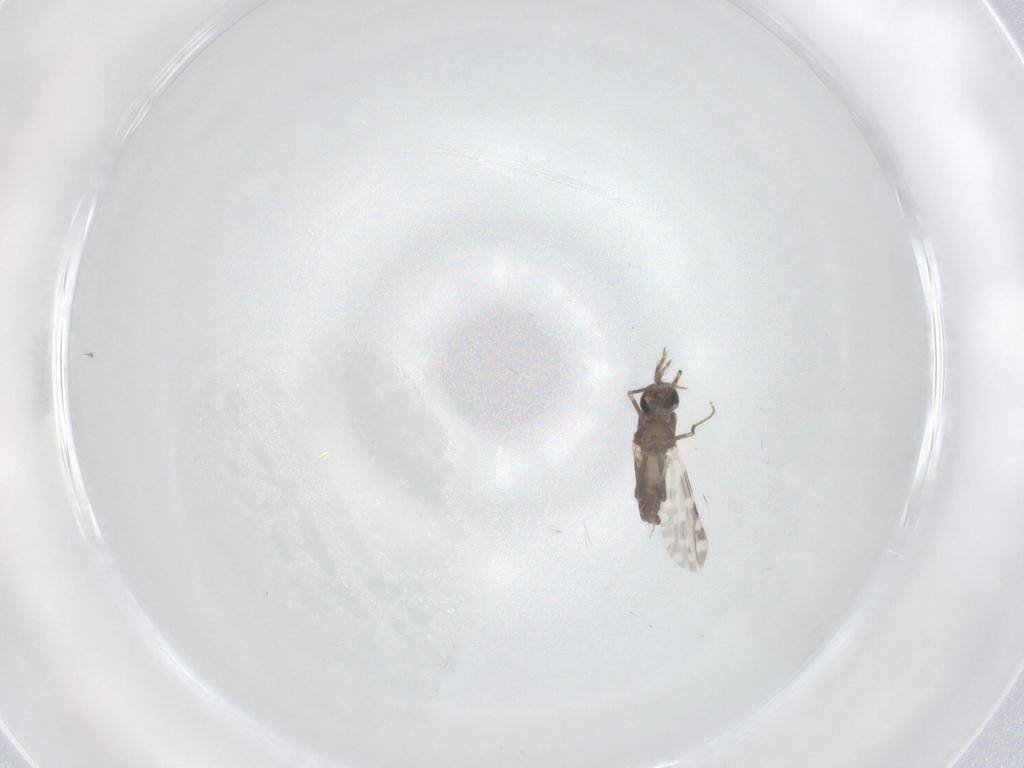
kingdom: Animalia
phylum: Arthropoda
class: Insecta
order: Diptera
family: Ceratopogonidae
